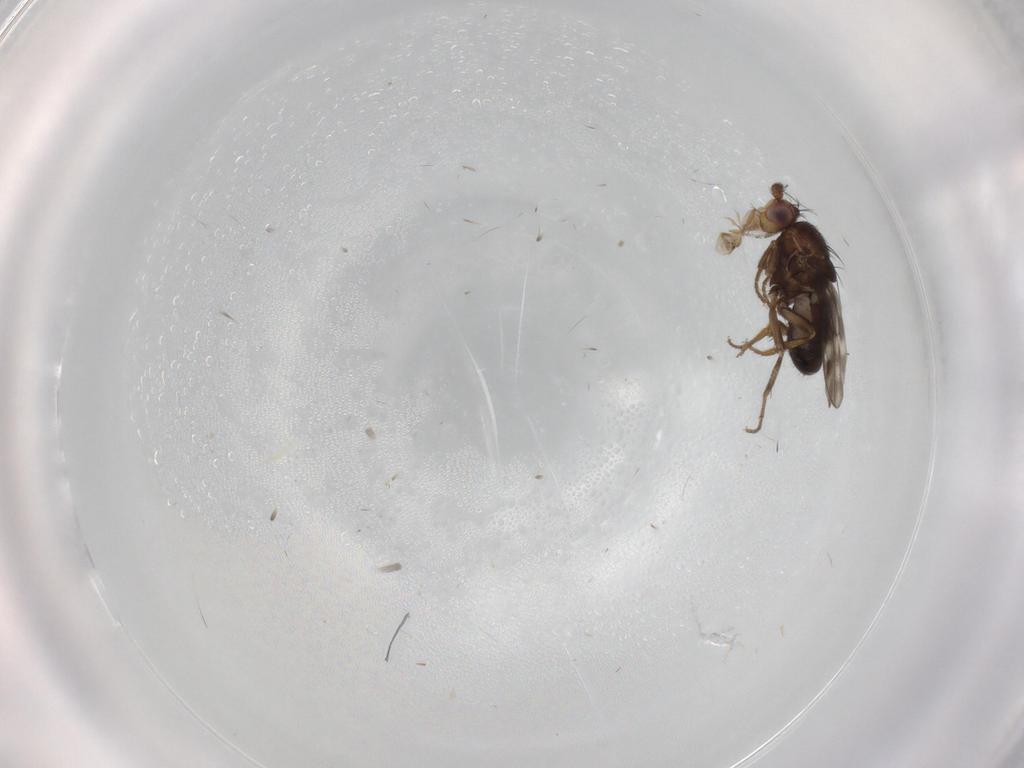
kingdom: Animalia
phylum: Arthropoda
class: Insecta
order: Diptera
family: Sphaeroceridae
